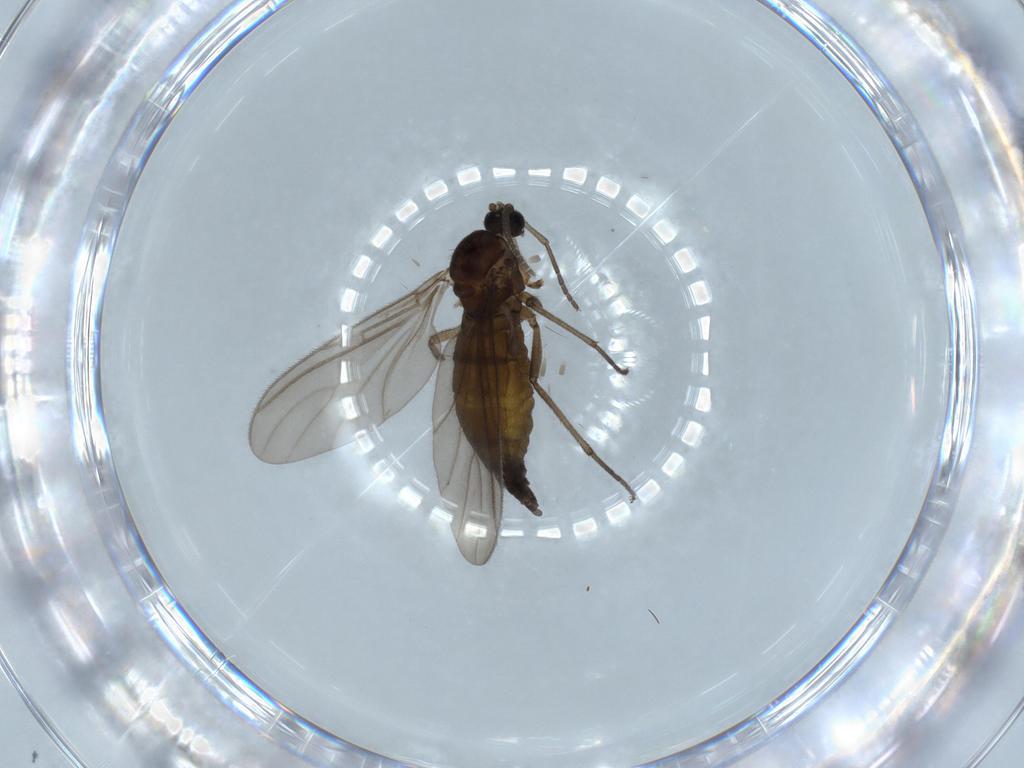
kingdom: Animalia
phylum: Arthropoda
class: Insecta
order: Diptera
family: Sciaridae
